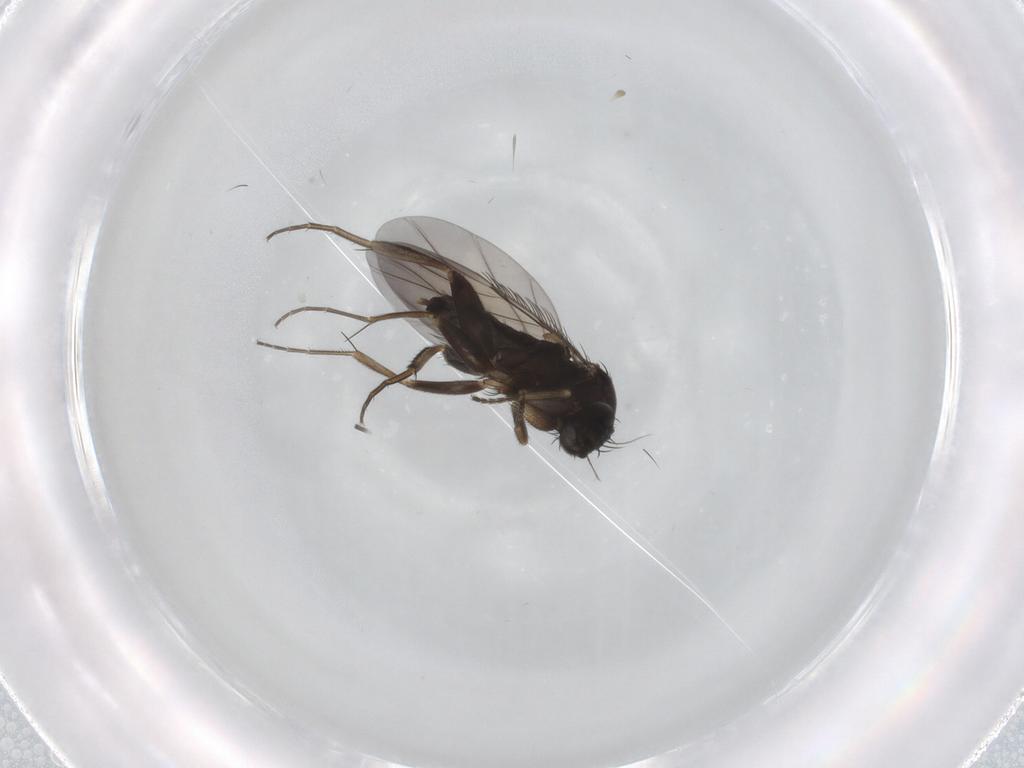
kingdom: Animalia
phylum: Arthropoda
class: Insecta
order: Diptera
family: Phoridae
